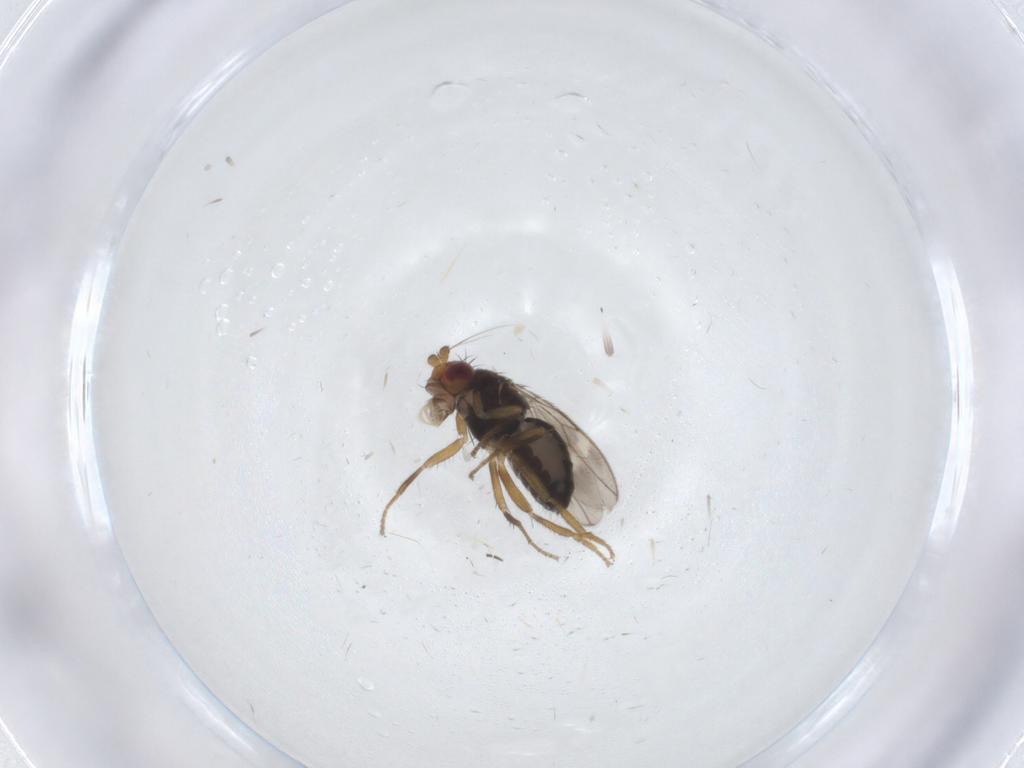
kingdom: Animalia
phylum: Arthropoda
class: Insecta
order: Diptera
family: Sphaeroceridae
